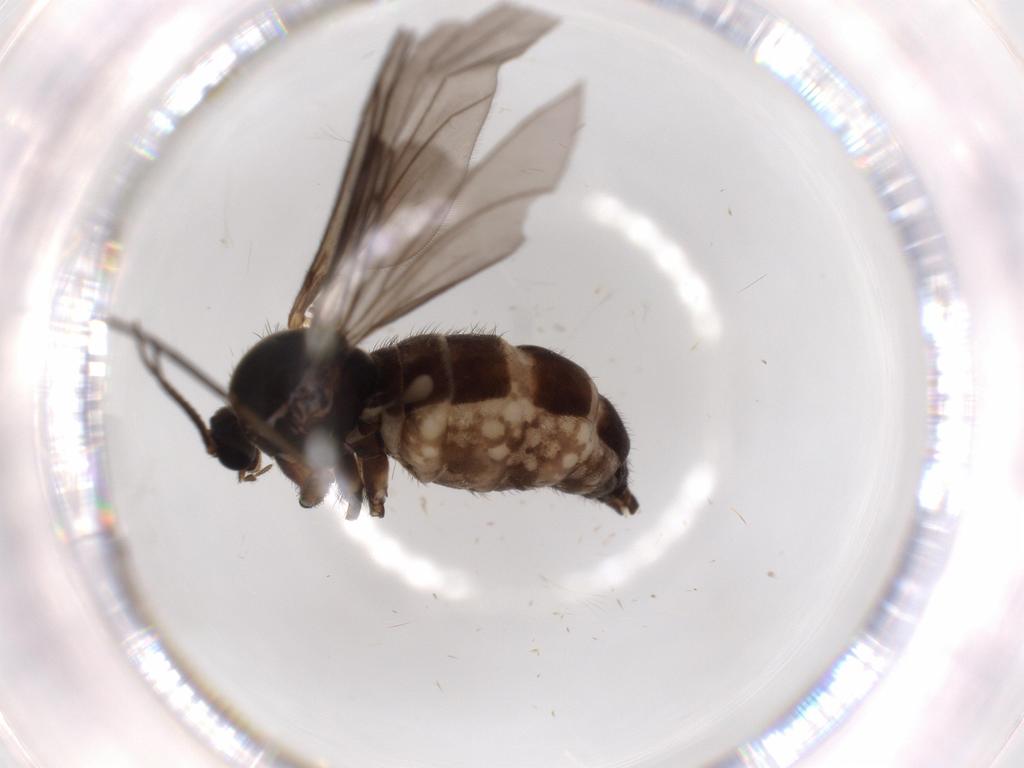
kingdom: Animalia
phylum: Arthropoda
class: Insecta
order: Diptera
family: Phoridae
